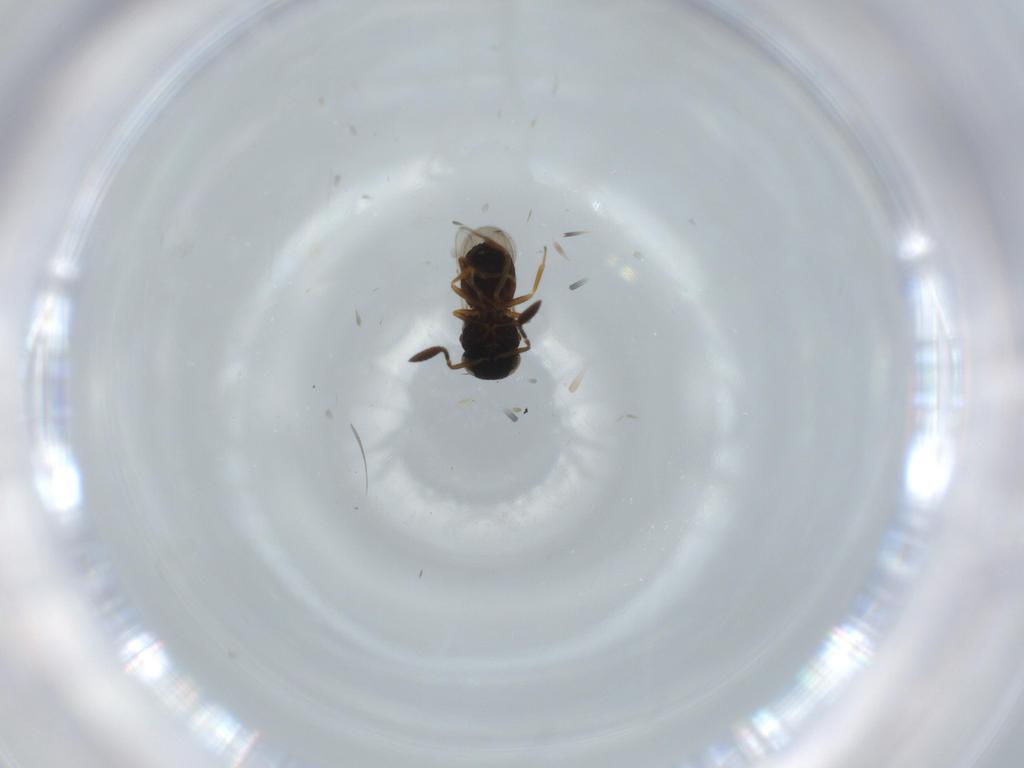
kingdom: Animalia
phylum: Arthropoda
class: Insecta
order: Hymenoptera
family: Scelionidae
